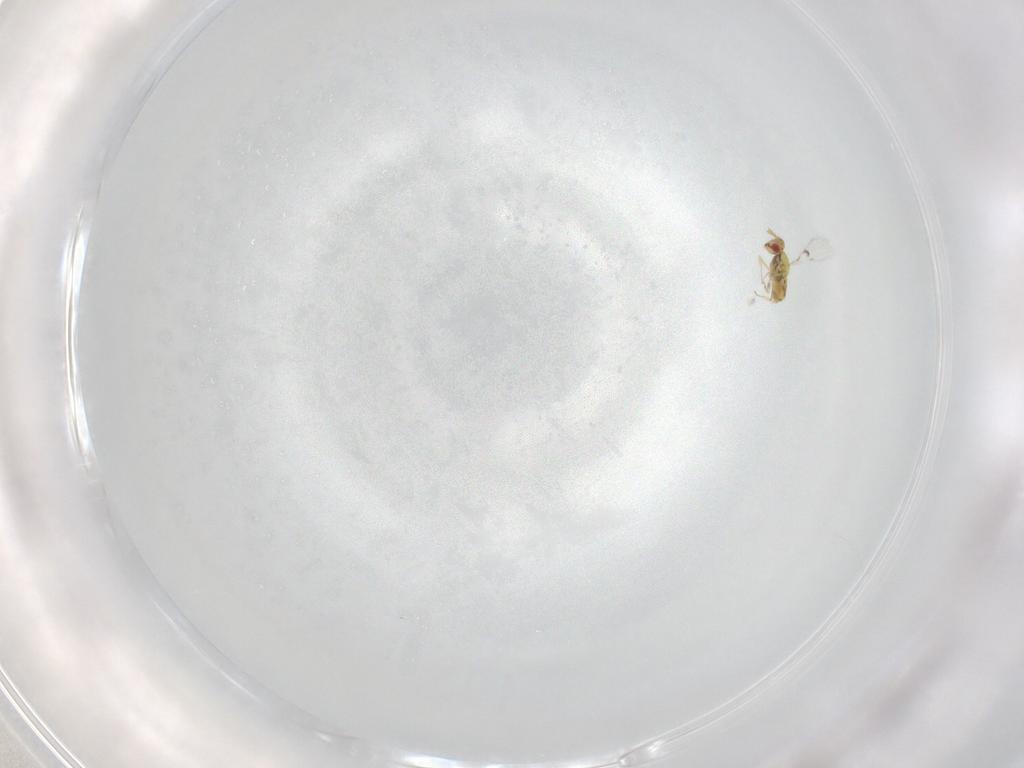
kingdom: Animalia
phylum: Arthropoda
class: Insecta
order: Hymenoptera
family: Trichogrammatidae
